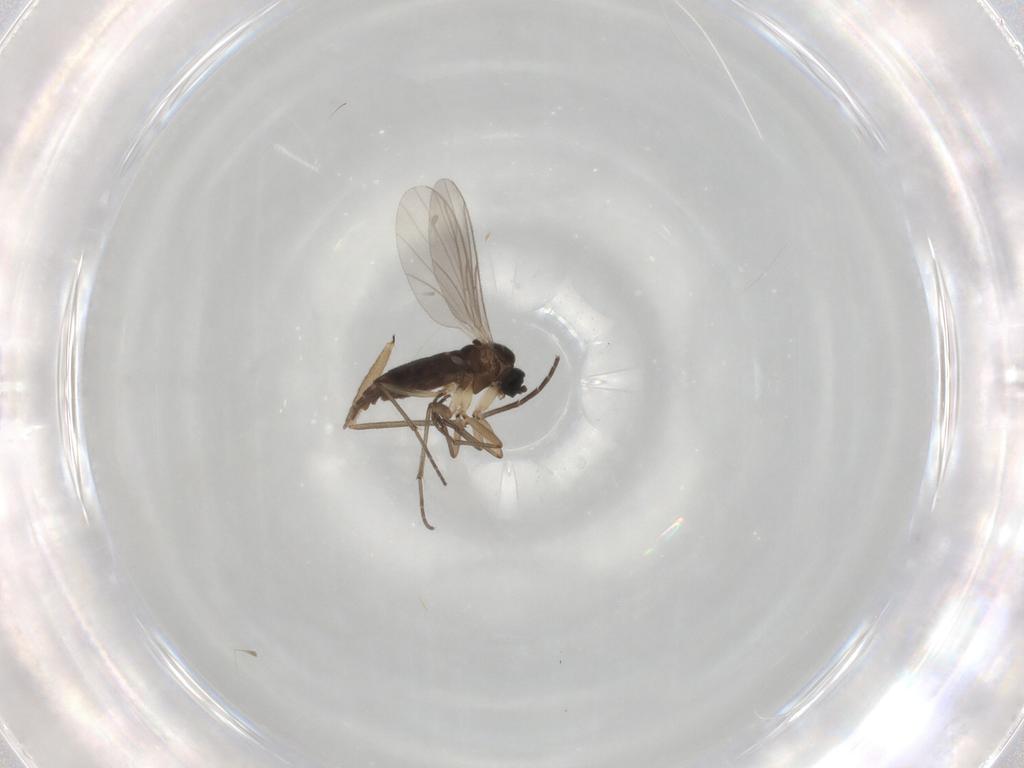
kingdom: Animalia
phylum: Arthropoda
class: Insecta
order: Diptera
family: Sciaridae
